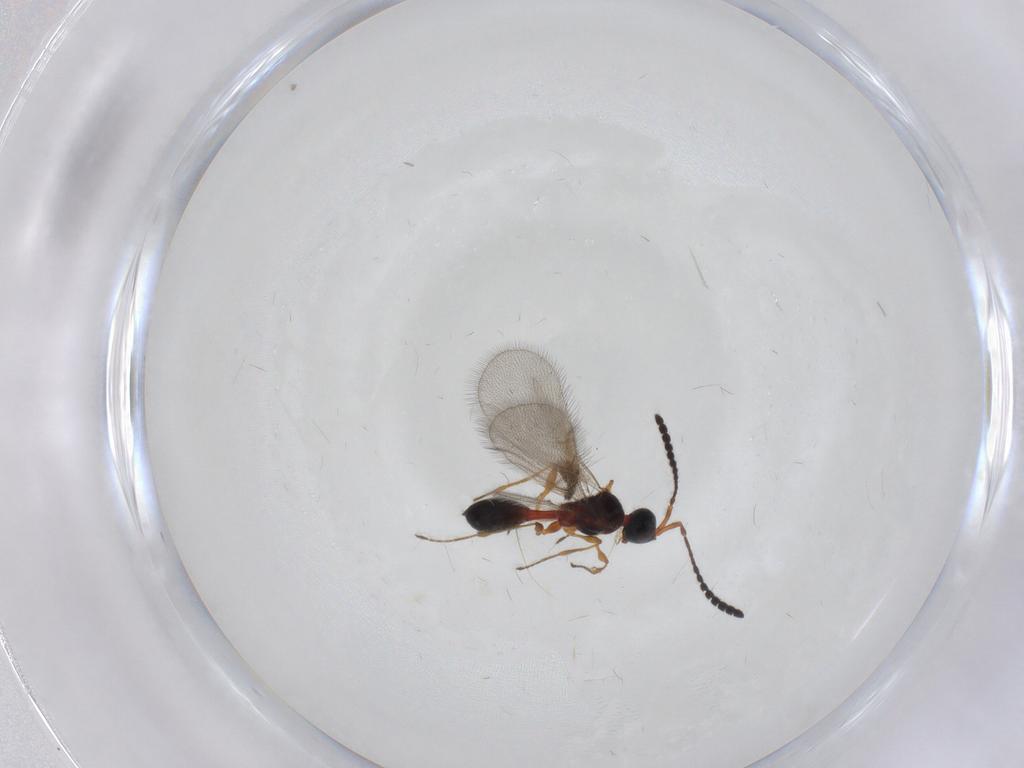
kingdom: Animalia
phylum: Arthropoda
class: Insecta
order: Hymenoptera
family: Diapriidae
